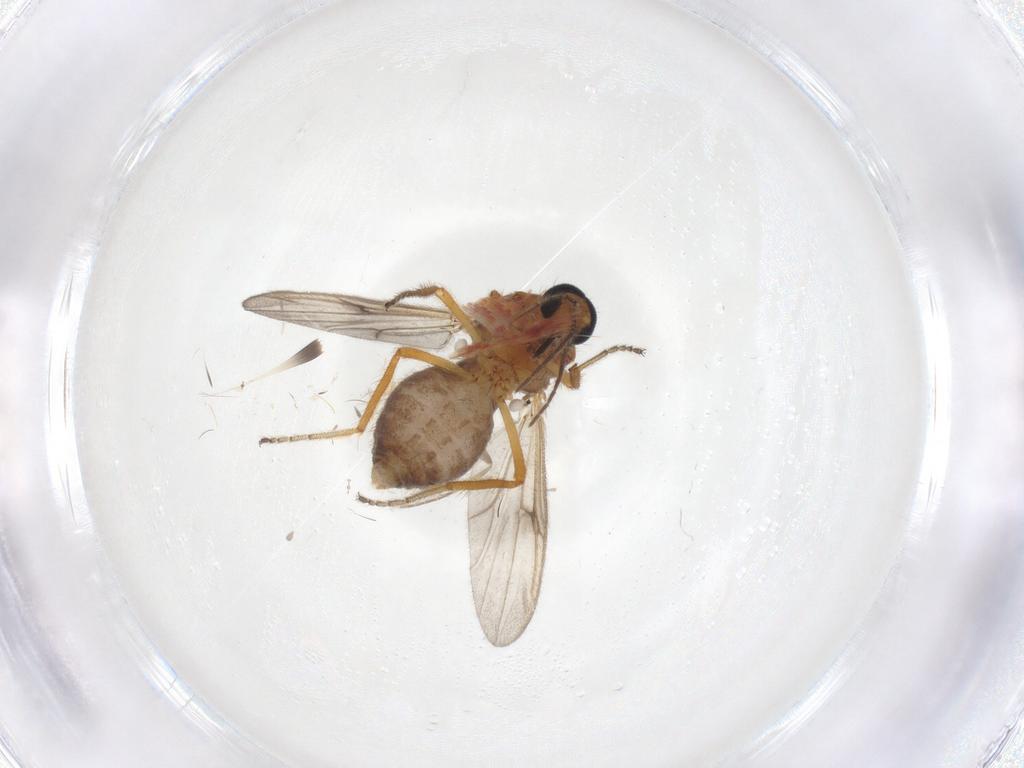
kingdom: Animalia
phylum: Arthropoda
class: Insecta
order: Diptera
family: Ceratopogonidae
